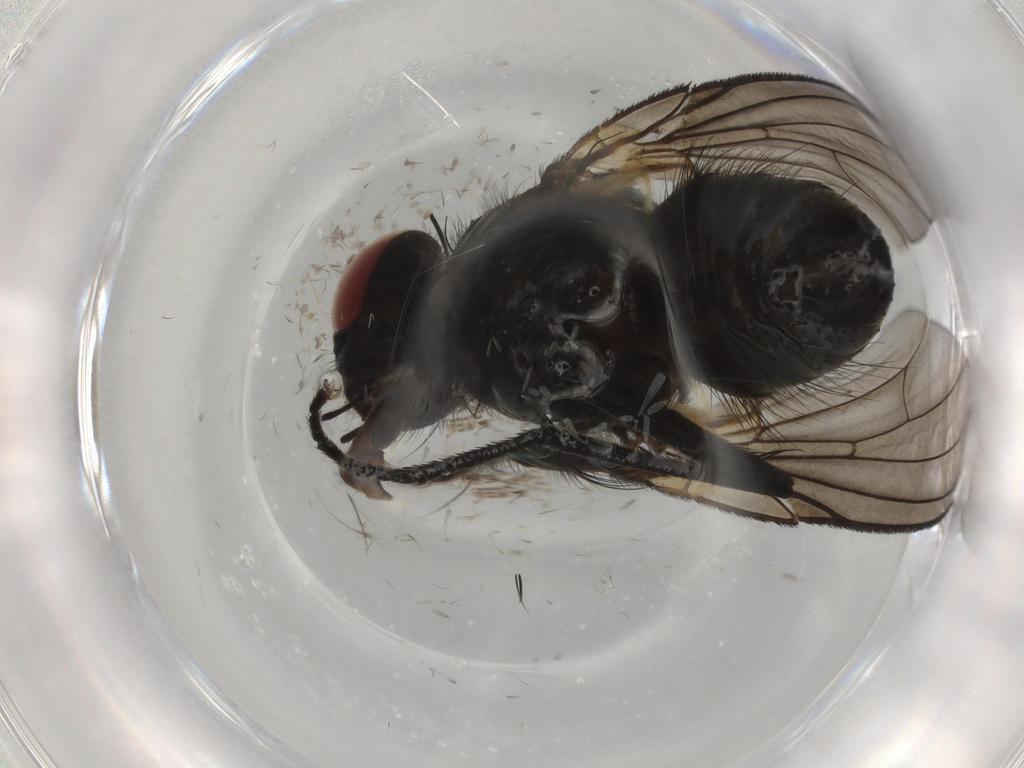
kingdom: Animalia
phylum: Arthropoda
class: Insecta
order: Diptera
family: Muscidae
